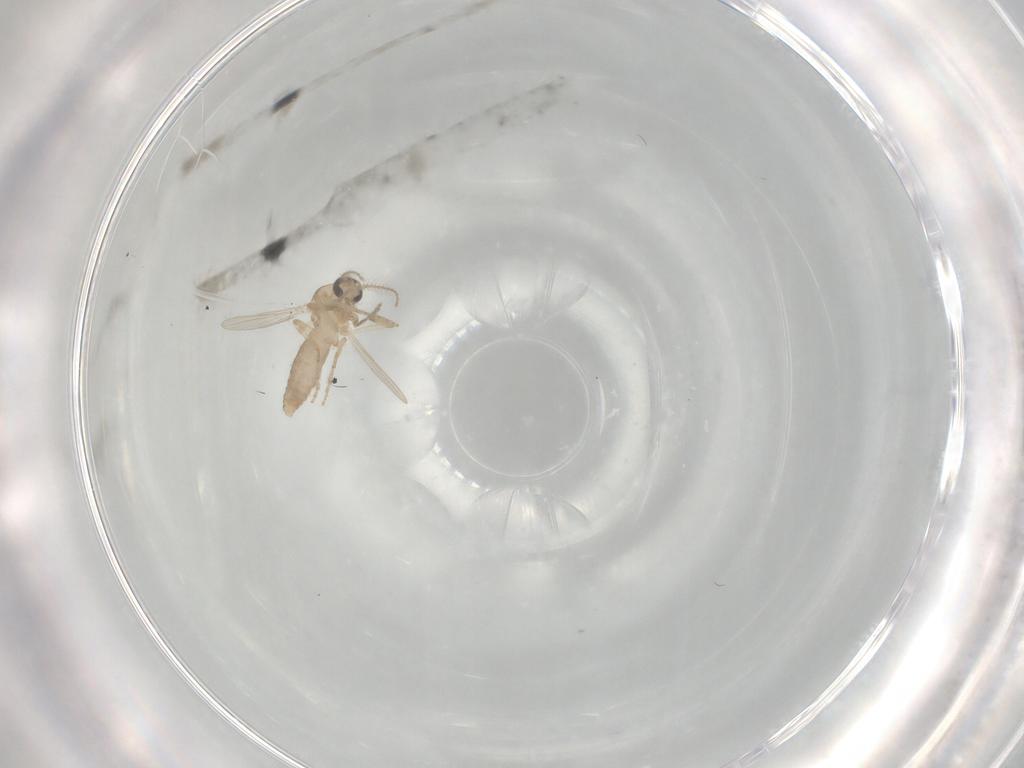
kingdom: Animalia
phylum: Arthropoda
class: Insecta
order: Diptera
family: Ceratopogonidae
